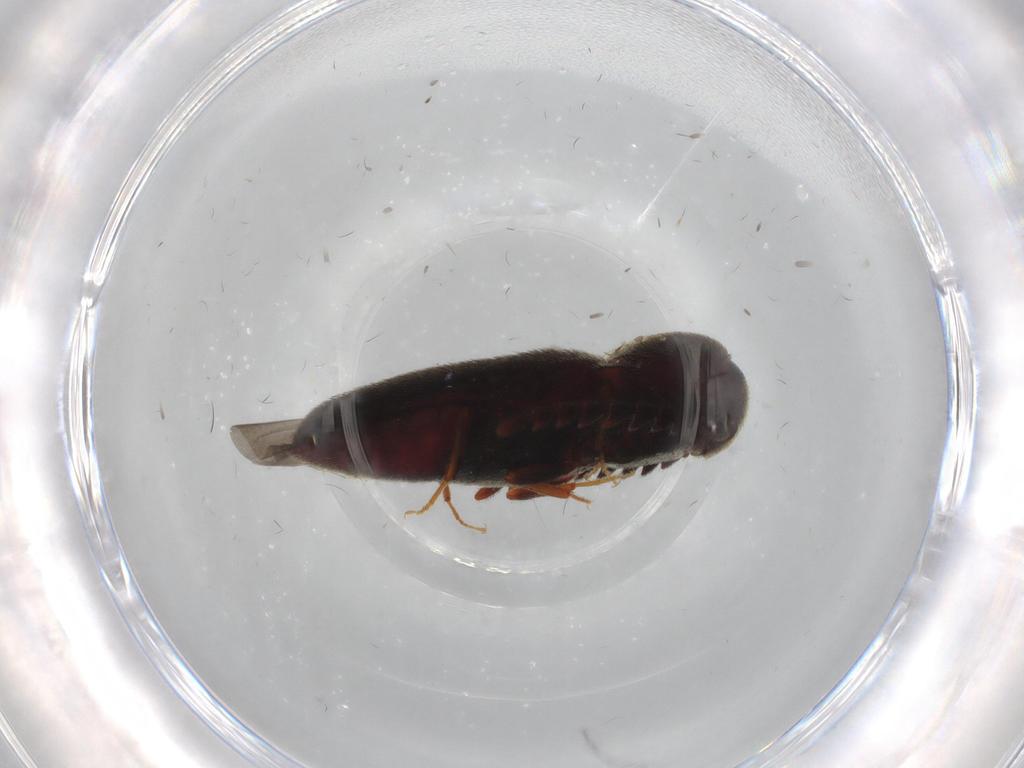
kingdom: Animalia
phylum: Arthropoda
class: Insecta
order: Coleoptera
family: Eucnemidae
